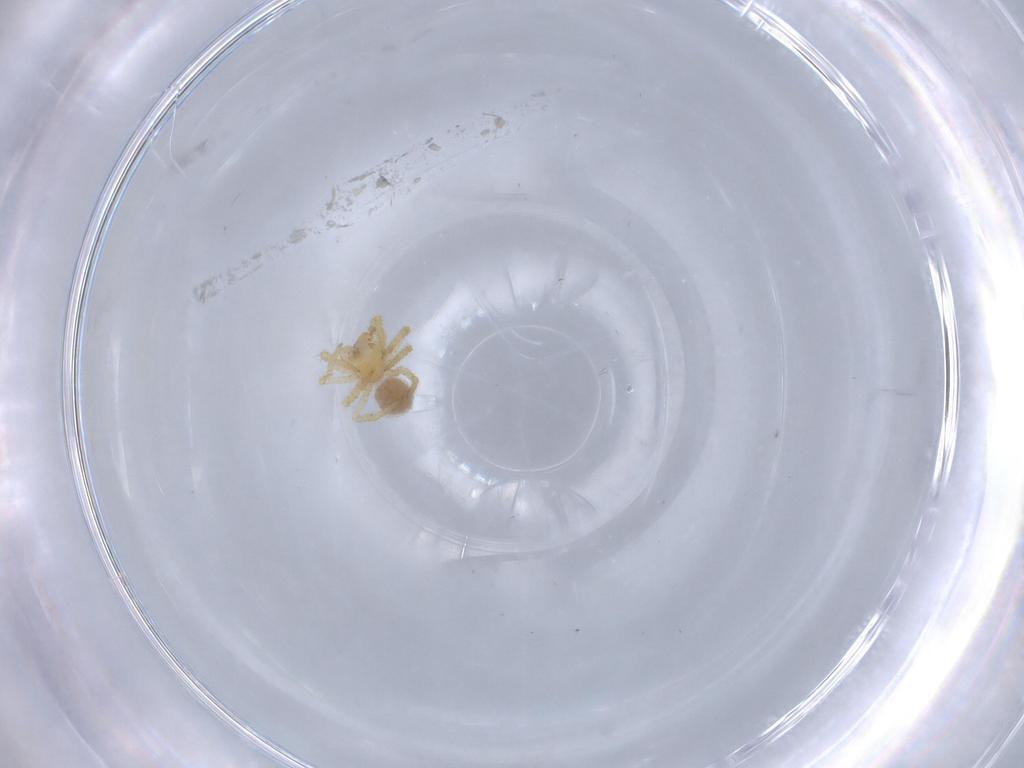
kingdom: Animalia
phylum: Arthropoda
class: Arachnida
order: Araneae
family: Theridiidae
